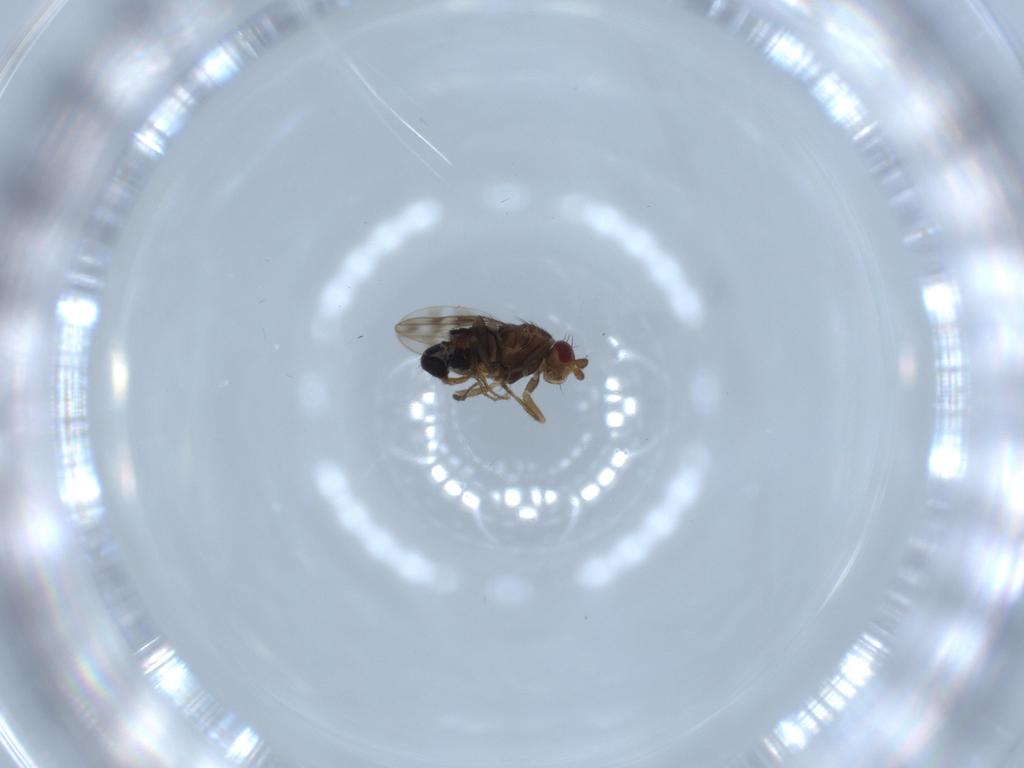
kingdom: Animalia
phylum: Arthropoda
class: Insecta
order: Diptera
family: Sphaeroceridae
